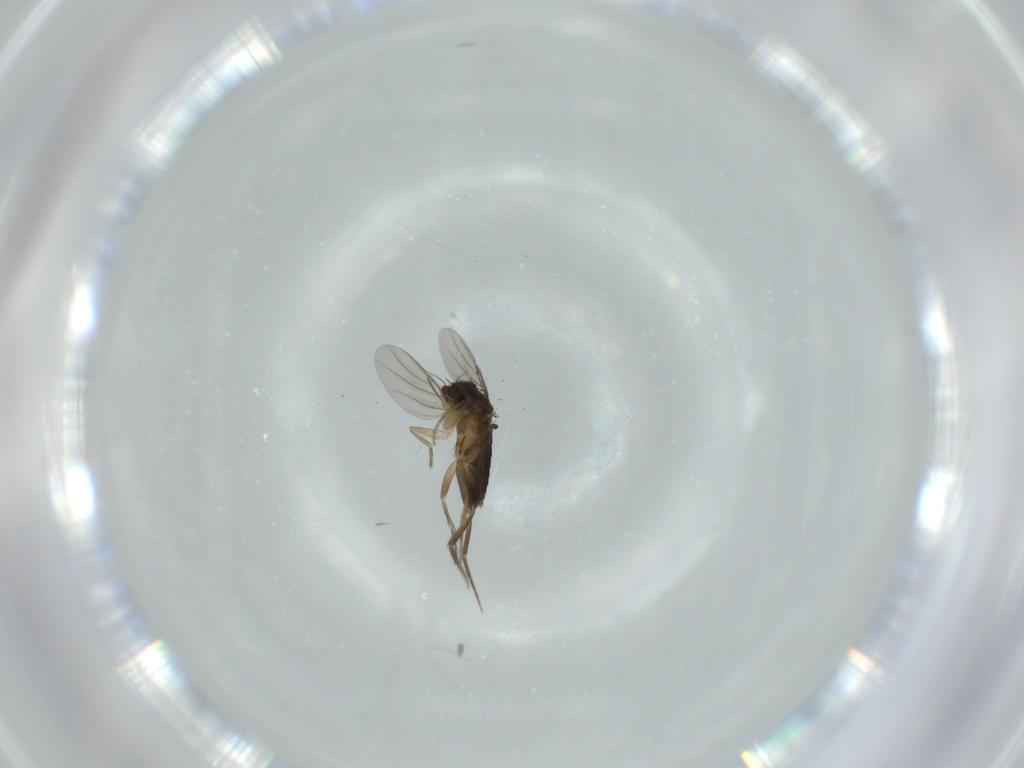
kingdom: Animalia
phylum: Arthropoda
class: Insecta
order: Diptera
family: Phoridae
